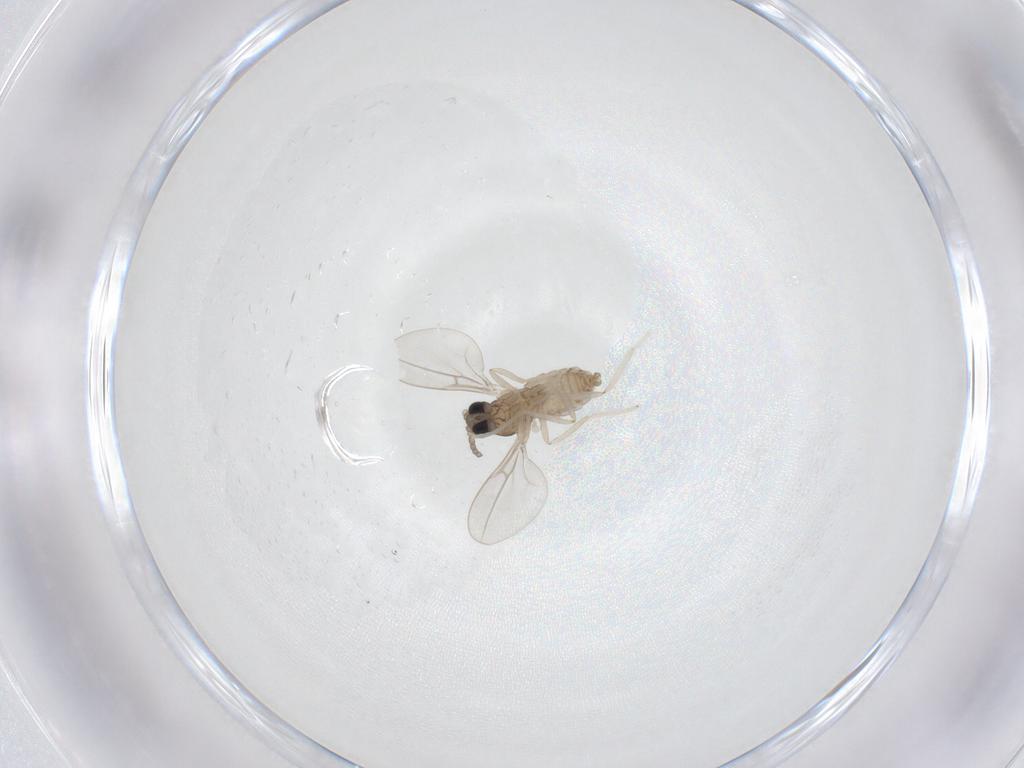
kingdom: Animalia
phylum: Arthropoda
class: Insecta
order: Diptera
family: Cecidomyiidae
